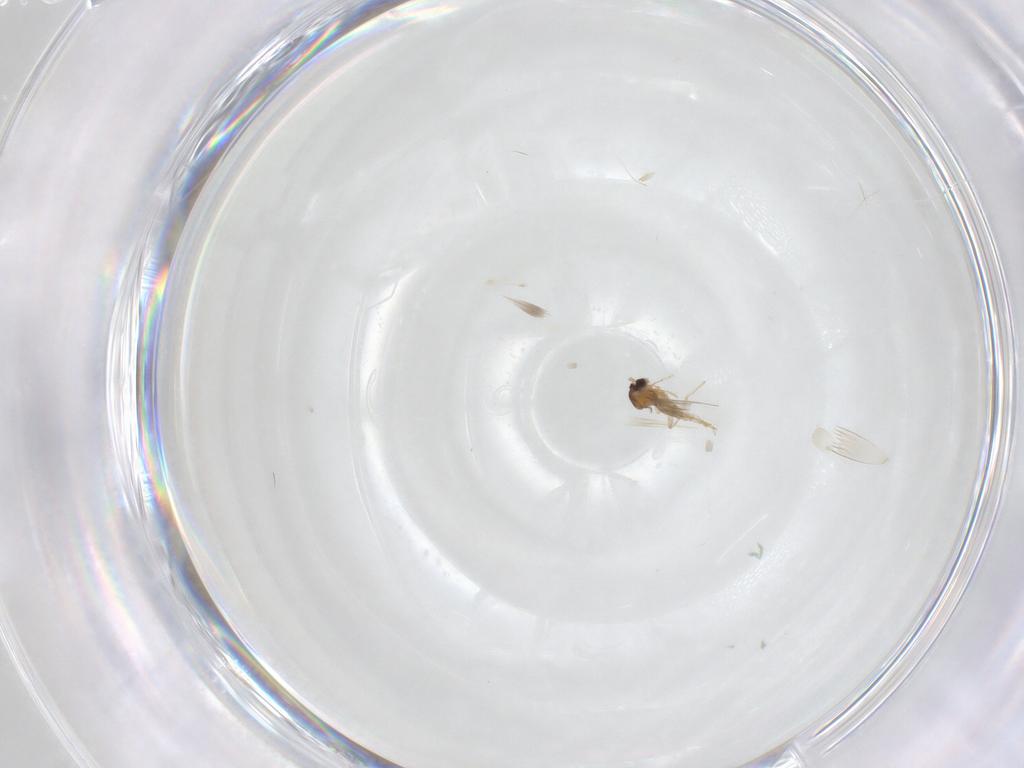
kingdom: Animalia
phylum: Arthropoda
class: Insecta
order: Diptera
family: Cecidomyiidae
